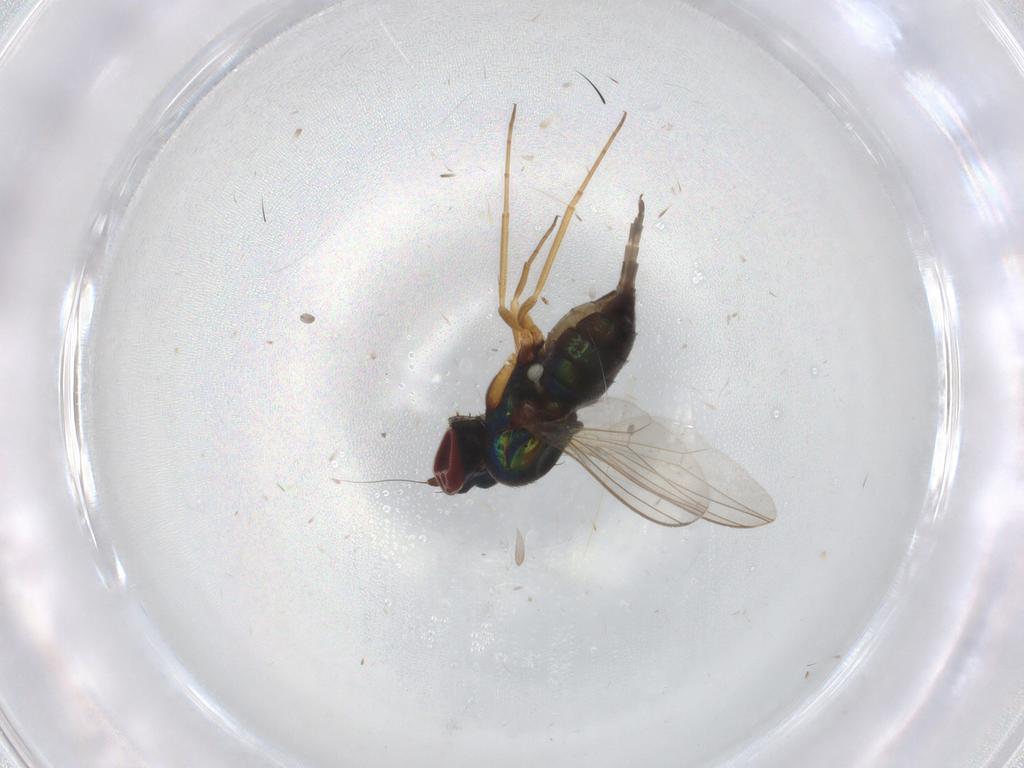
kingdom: Animalia
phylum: Arthropoda
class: Insecta
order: Diptera
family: Dolichopodidae
